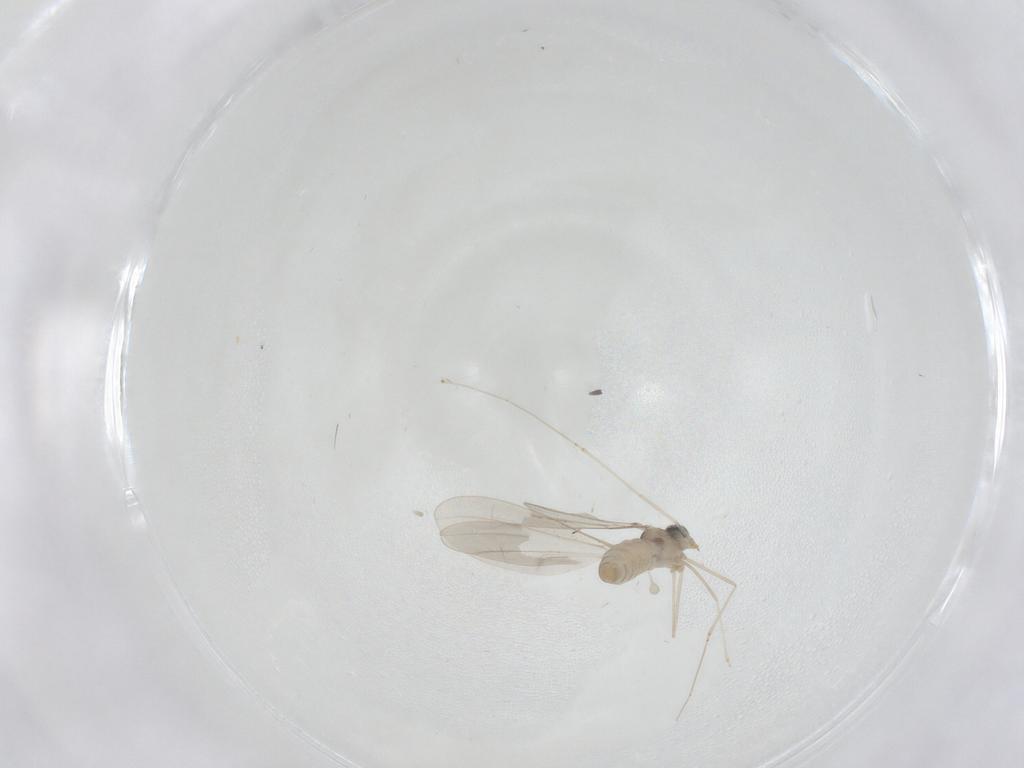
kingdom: Animalia
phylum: Arthropoda
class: Insecta
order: Diptera
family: Cecidomyiidae
